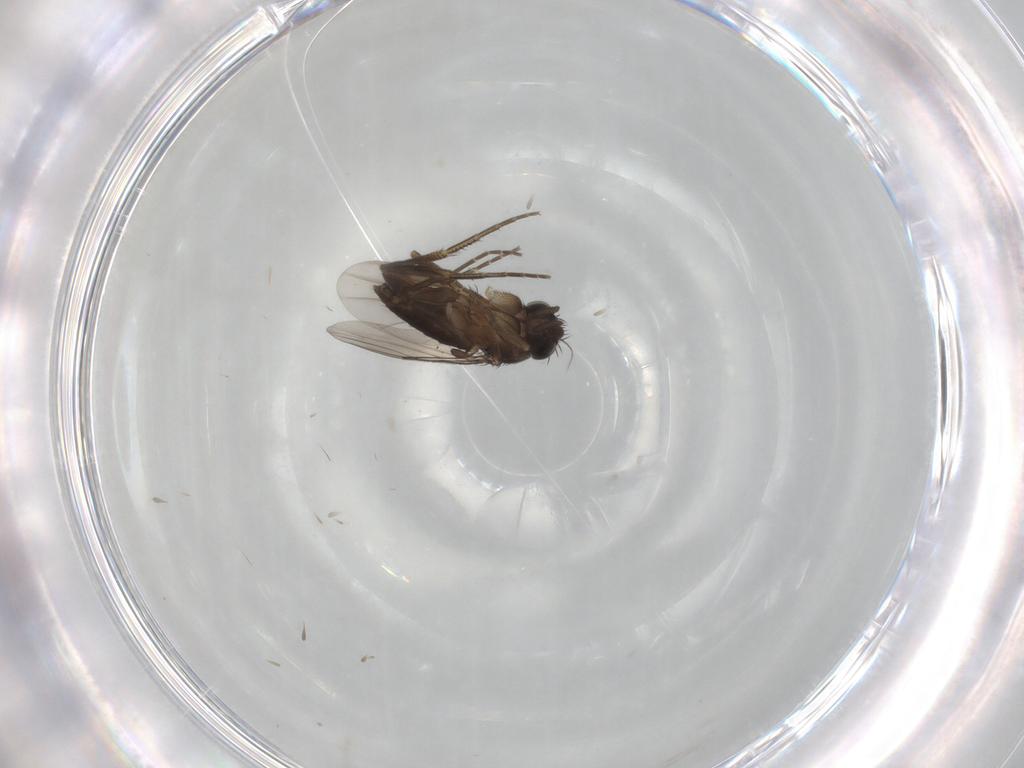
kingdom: Animalia
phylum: Arthropoda
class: Insecta
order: Diptera
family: Phoridae
